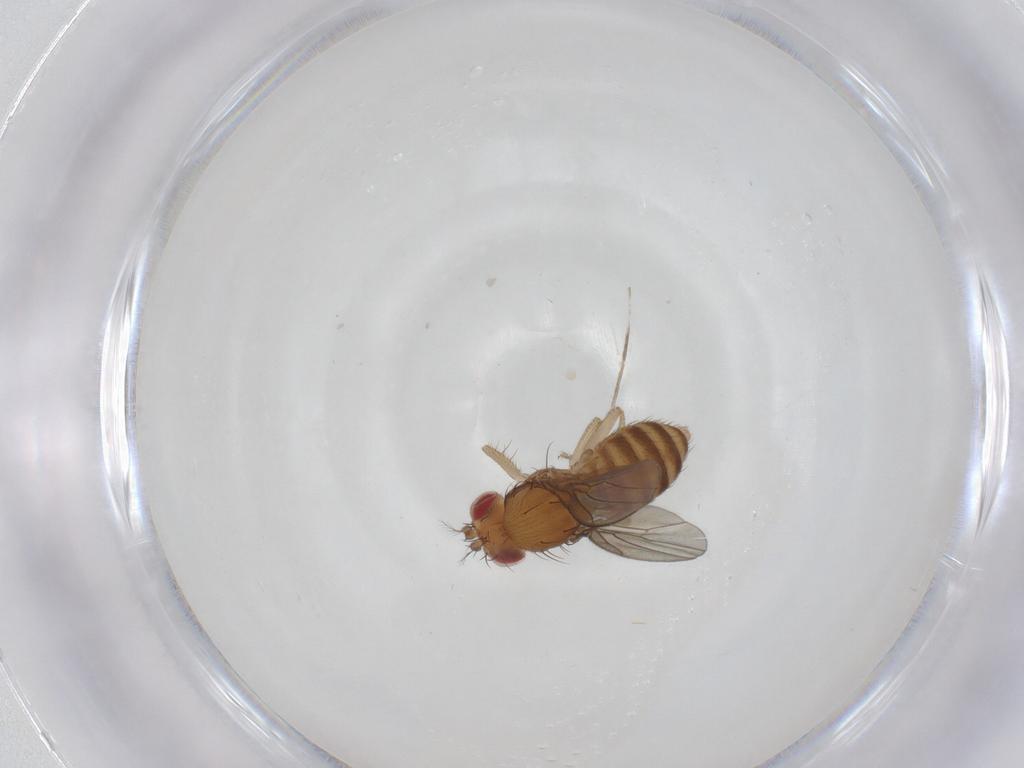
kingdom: Animalia
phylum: Arthropoda
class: Insecta
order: Diptera
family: Drosophilidae
